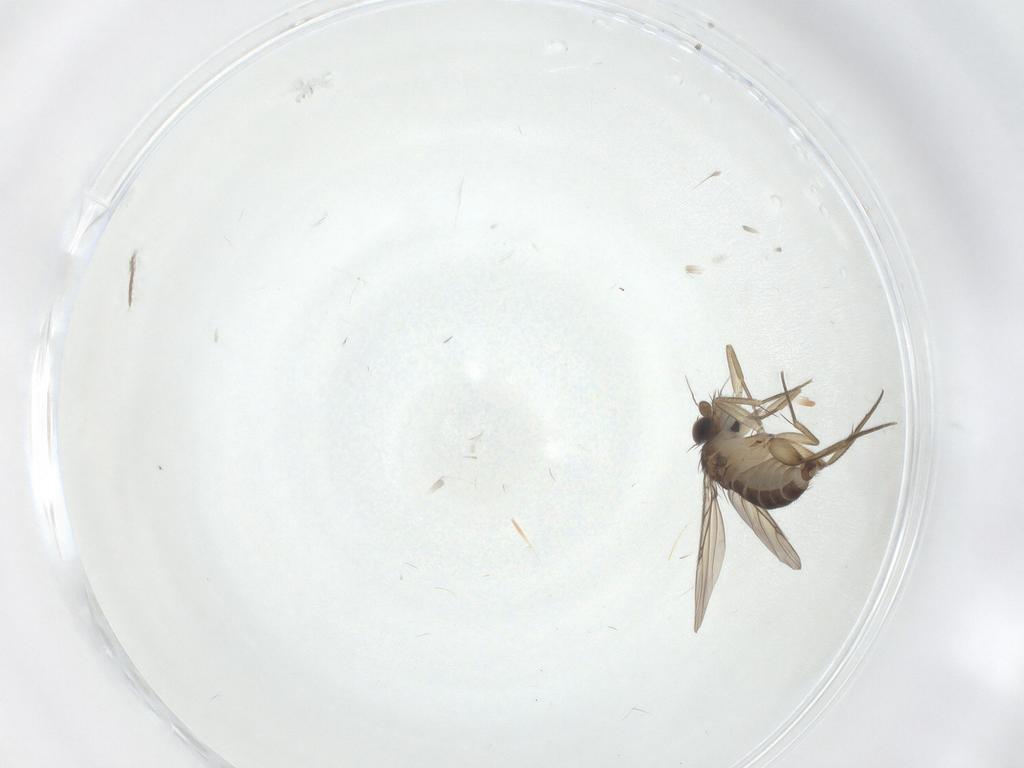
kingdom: Animalia
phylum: Arthropoda
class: Insecta
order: Diptera
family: Phoridae
